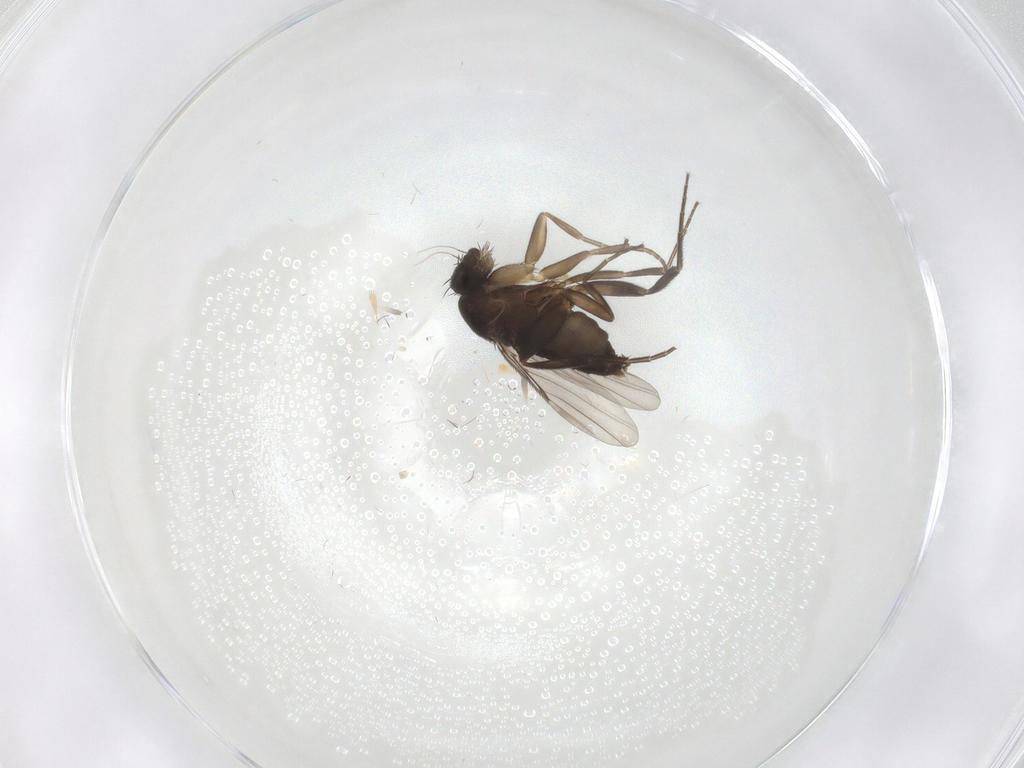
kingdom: Animalia
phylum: Arthropoda
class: Insecta
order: Diptera
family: Phoridae
